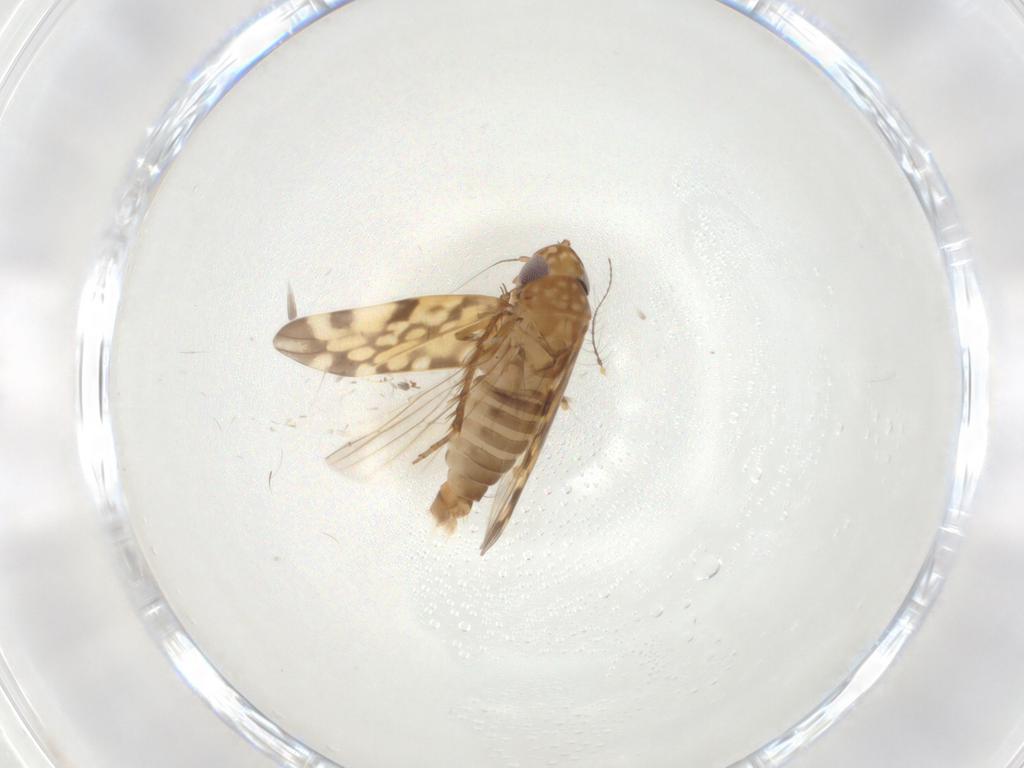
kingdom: Animalia
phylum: Arthropoda
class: Insecta
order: Hemiptera
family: Cicadellidae
